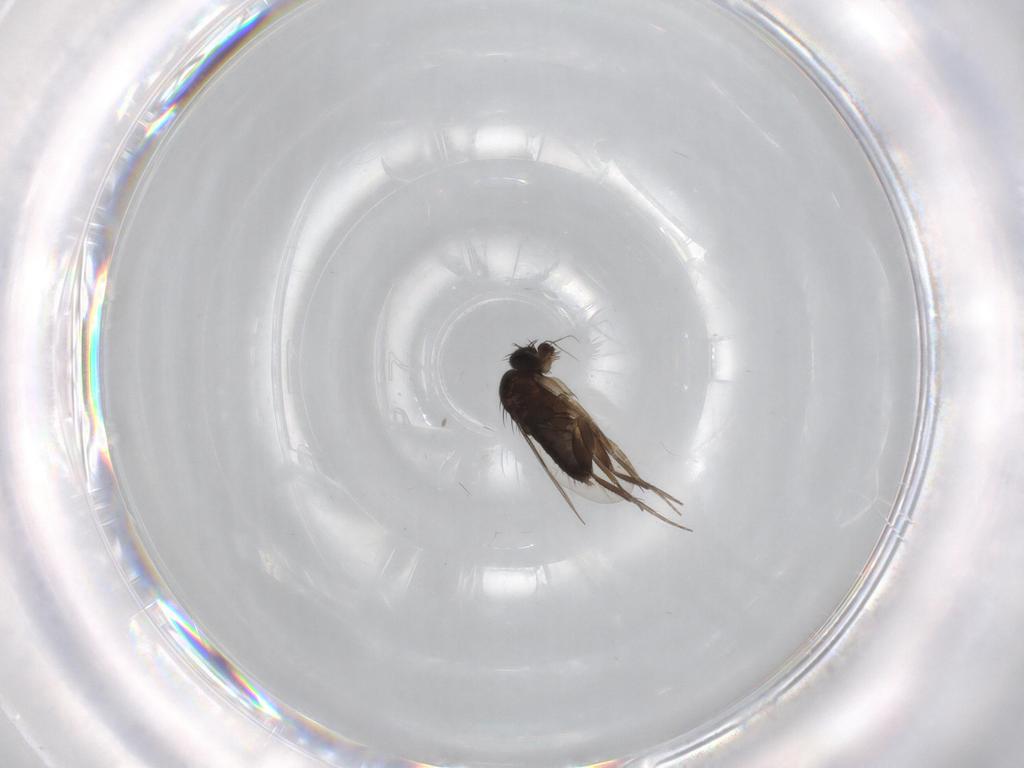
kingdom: Animalia
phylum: Arthropoda
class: Insecta
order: Diptera
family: Phoridae
